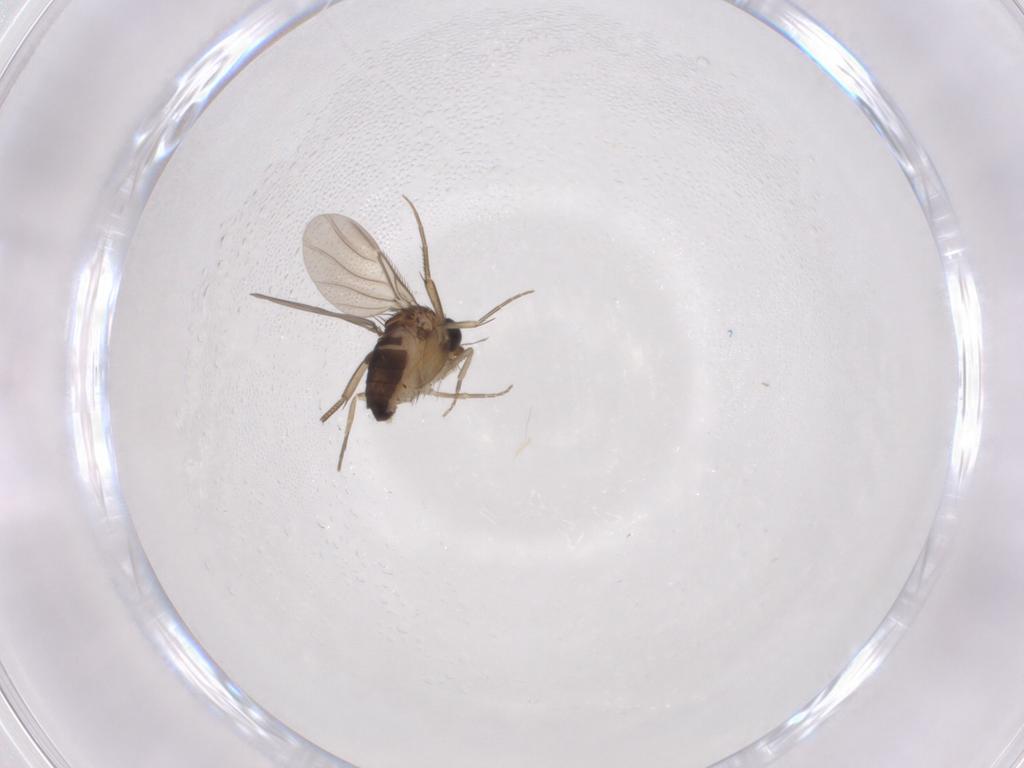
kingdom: Animalia
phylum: Arthropoda
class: Insecta
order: Diptera
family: Phoridae
